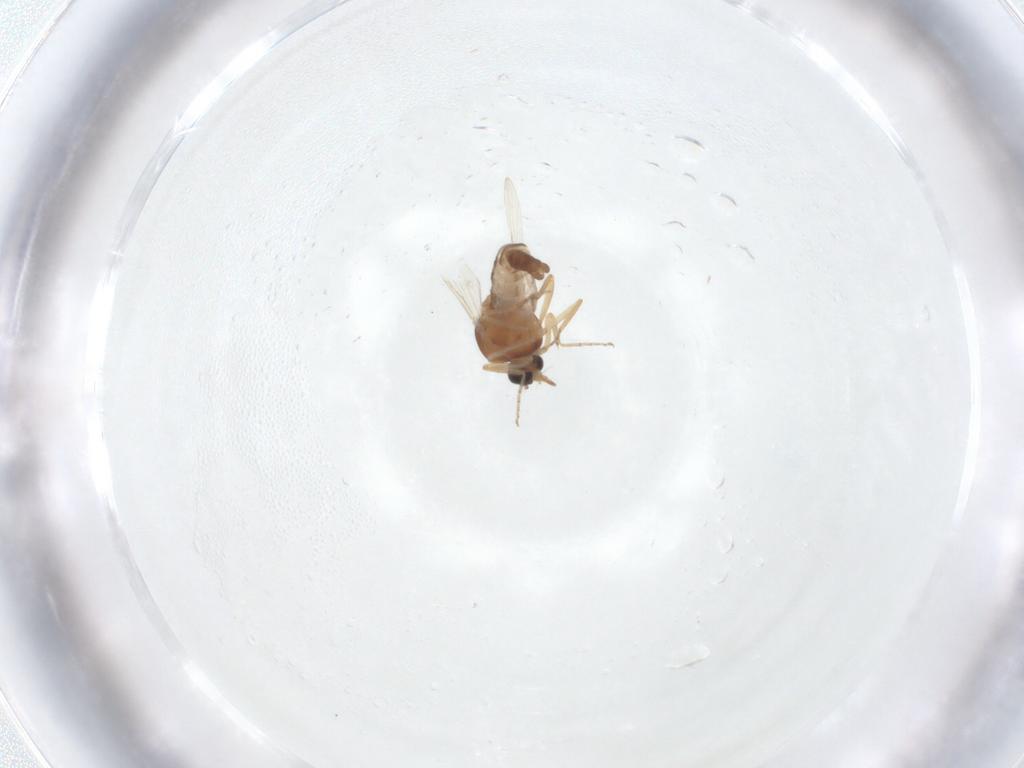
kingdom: Animalia
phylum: Arthropoda
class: Insecta
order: Diptera
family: Ceratopogonidae
